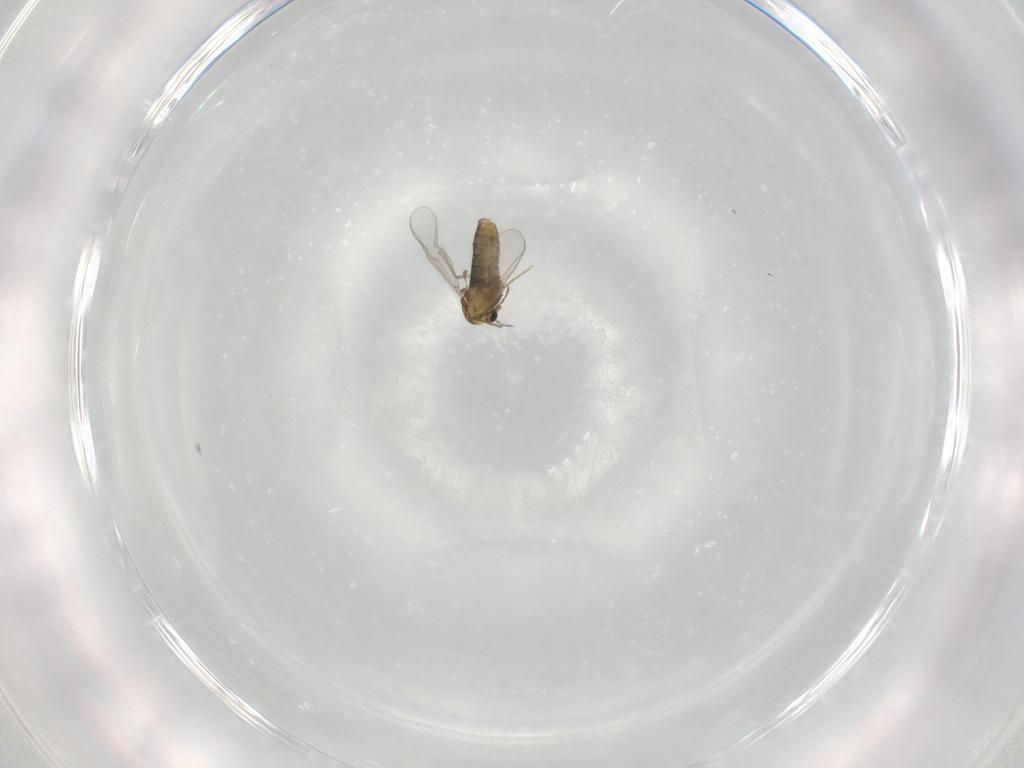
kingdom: Animalia
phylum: Arthropoda
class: Insecta
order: Diptera
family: Chironomidae
